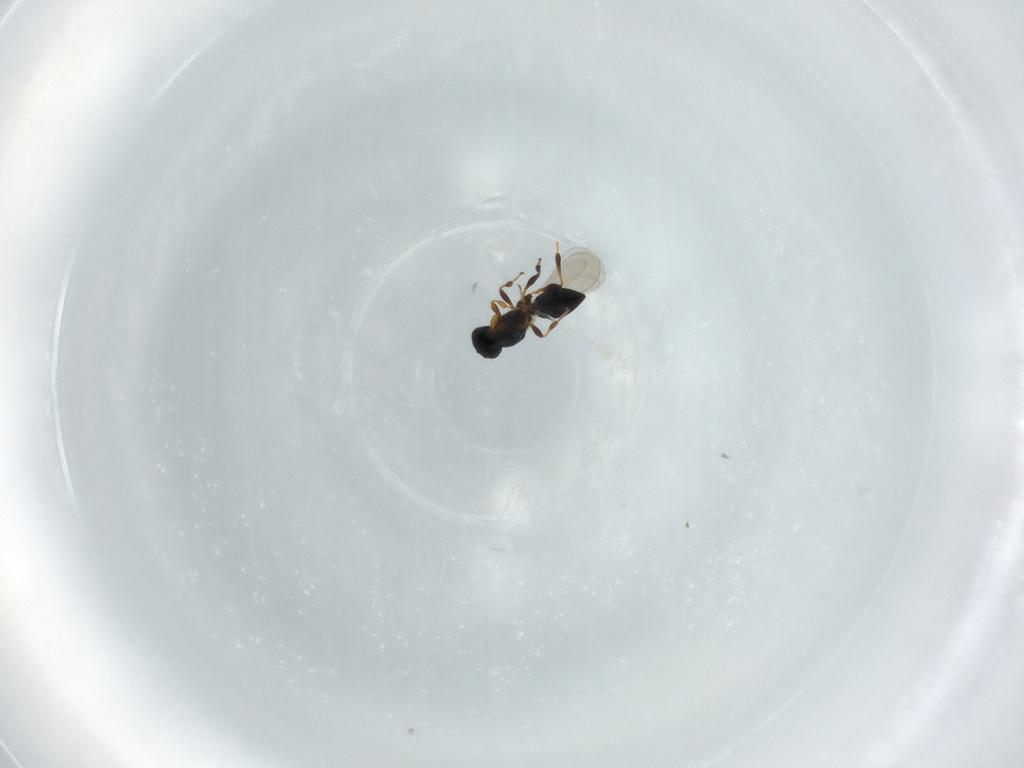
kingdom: Animalia
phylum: Arthropoda
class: Insecta
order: Hymenoptera
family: Platygastridae
